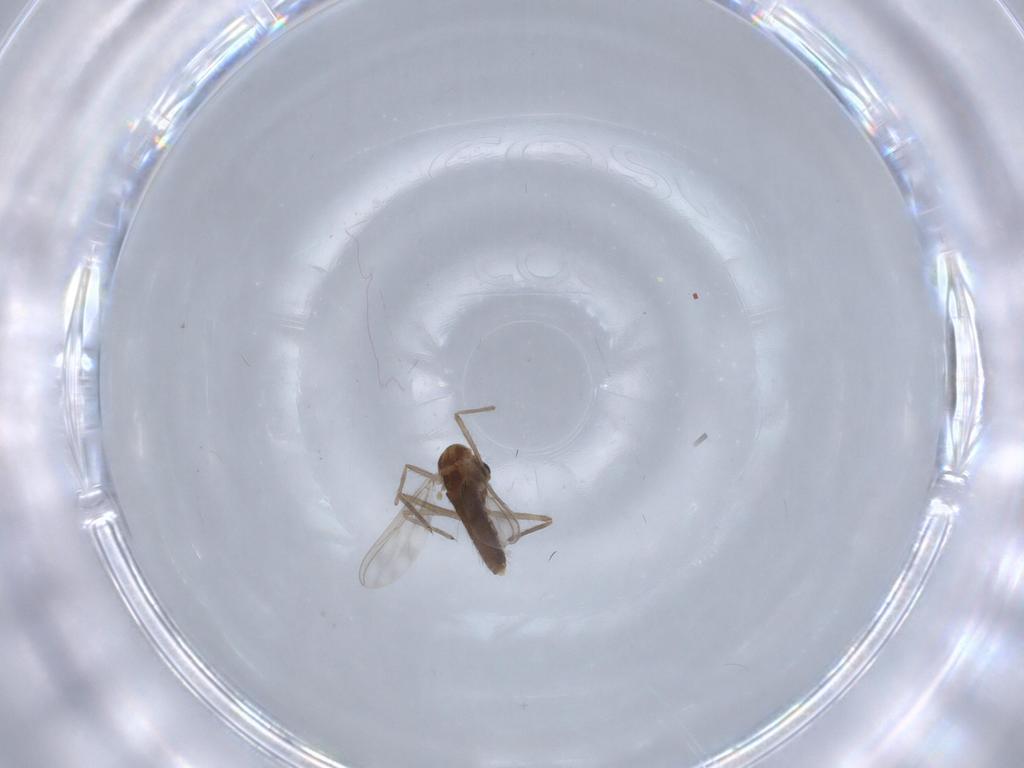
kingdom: Animalia
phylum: Arthropoda
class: Insecta
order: Diptera
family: Chironomidae
